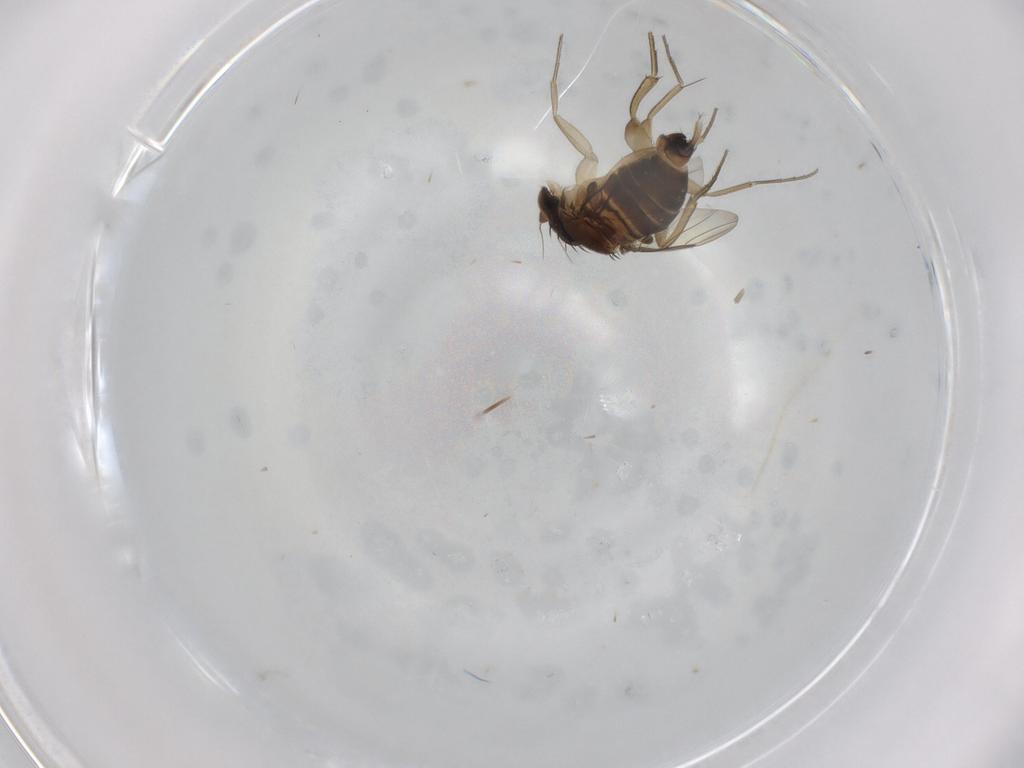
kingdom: Animalia
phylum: Arthropoda
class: Insecta
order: Diptera
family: Phoridae
